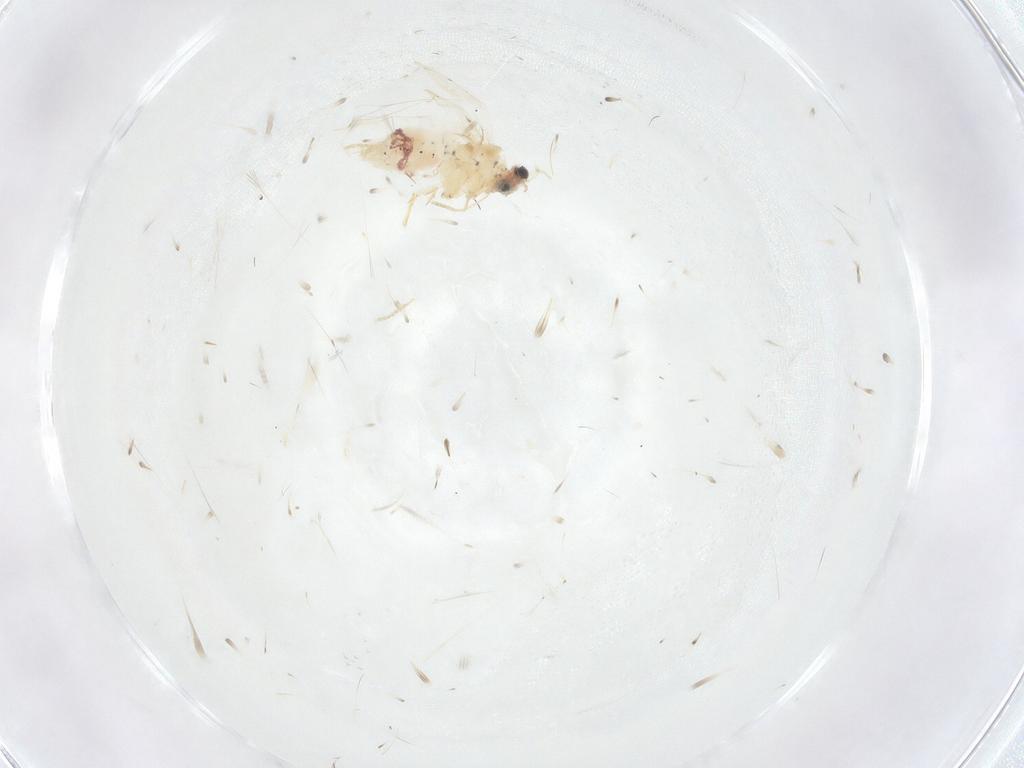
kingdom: Animalia
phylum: Arthropoda
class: Insecta
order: Lepidoptera
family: Nepticulidae
